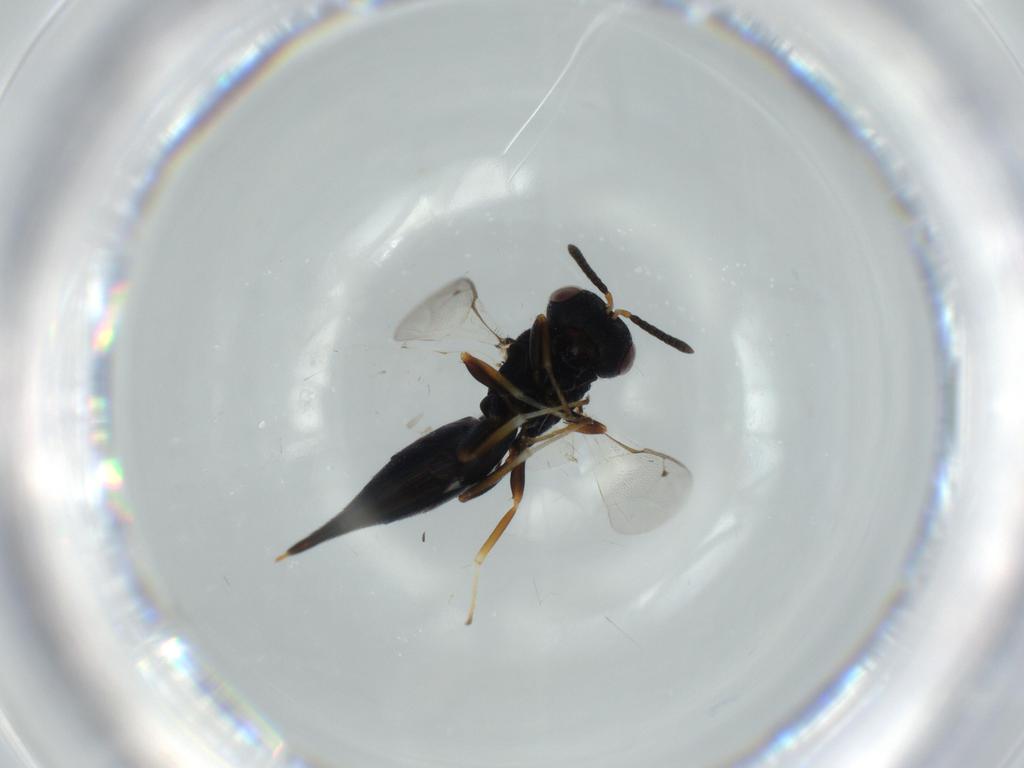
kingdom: Animalia
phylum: Arthropoda
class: Insecta
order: Hymenoptera
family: Pteromalidae
